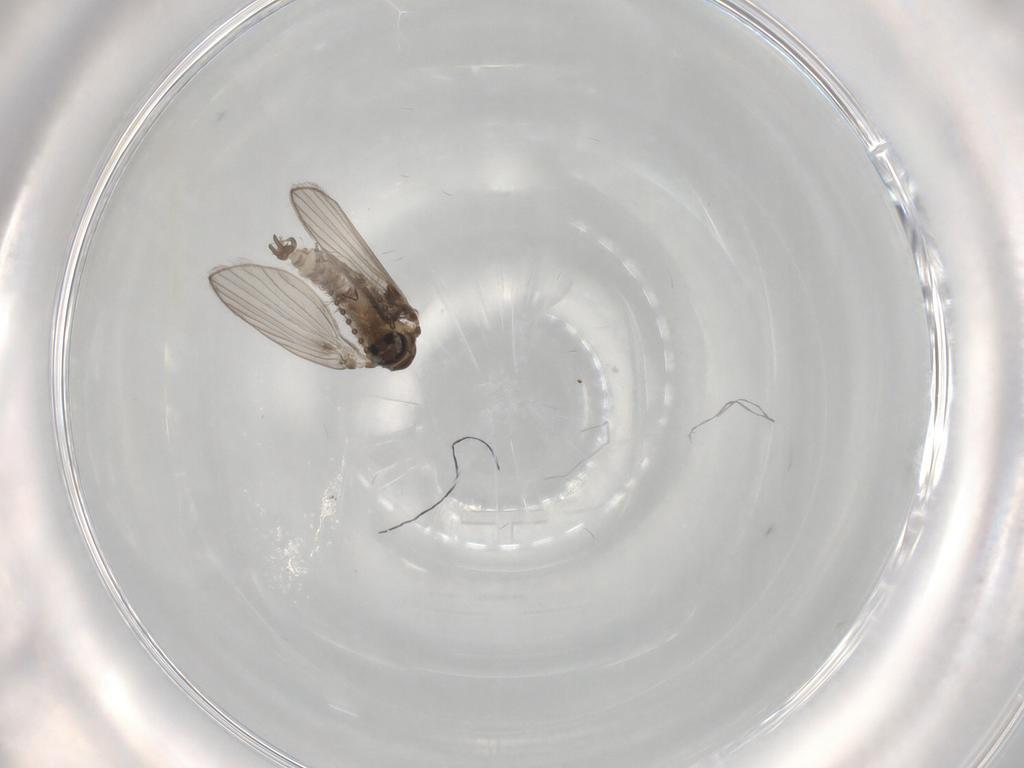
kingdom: Animalia
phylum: Arthropoda
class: Insecta
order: Diptera
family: Psychodidae
